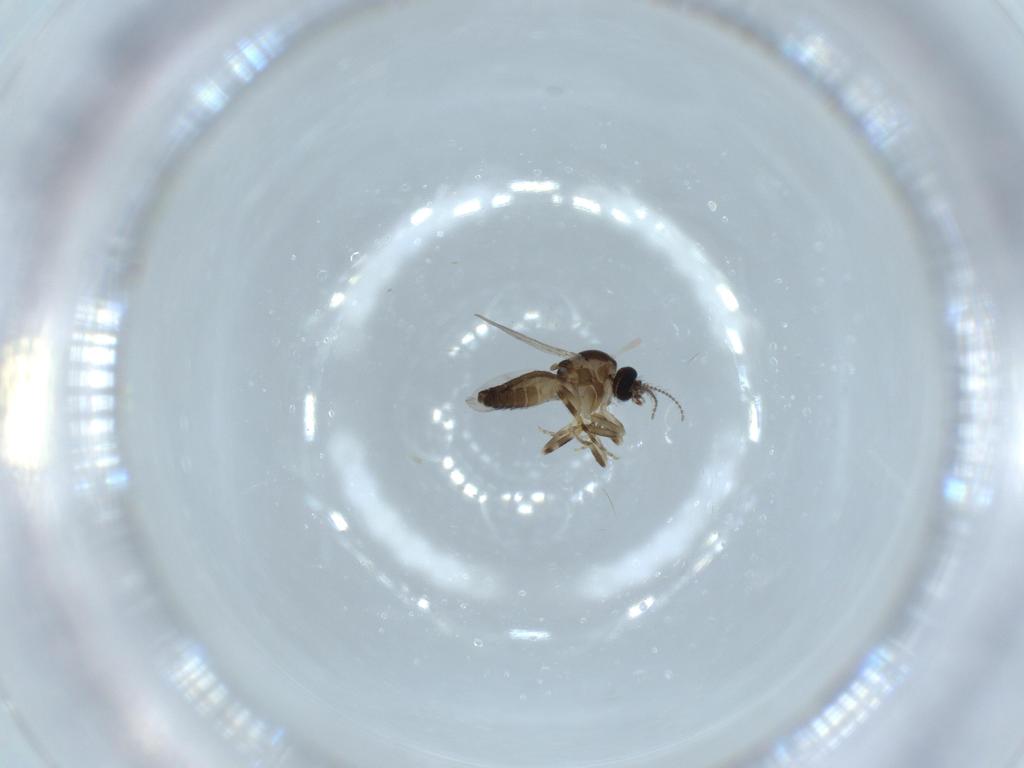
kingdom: Animalia
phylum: Arthropoda
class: Insecta
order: Diptera
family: Ceratopogonidae
